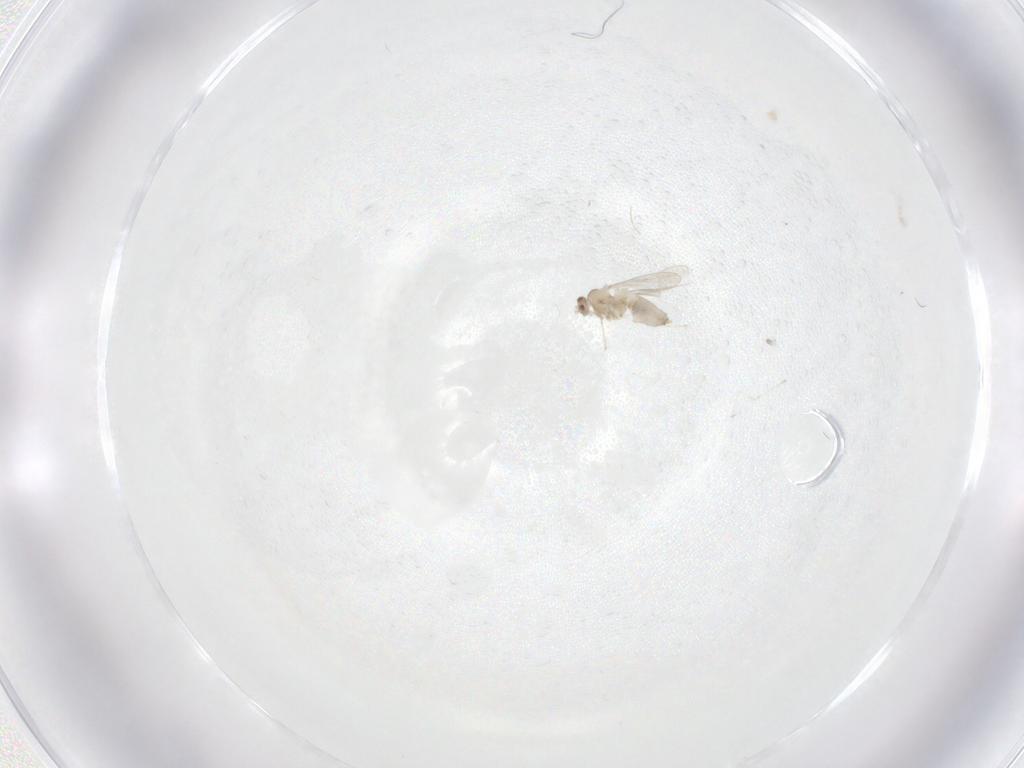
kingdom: Animalia
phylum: Arthropoda
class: Insecta
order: Diptera
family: Cecidomyiidae
